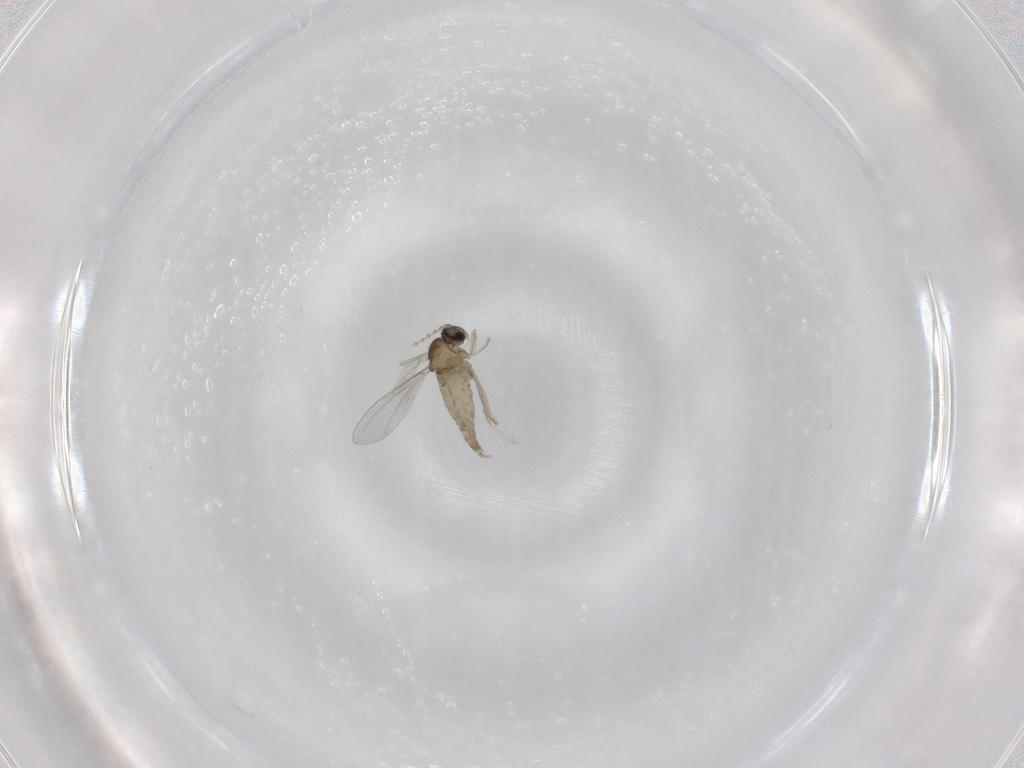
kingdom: Animalia
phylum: Arthropoda
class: Insecta
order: Diptera
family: Cecidomyiidae
